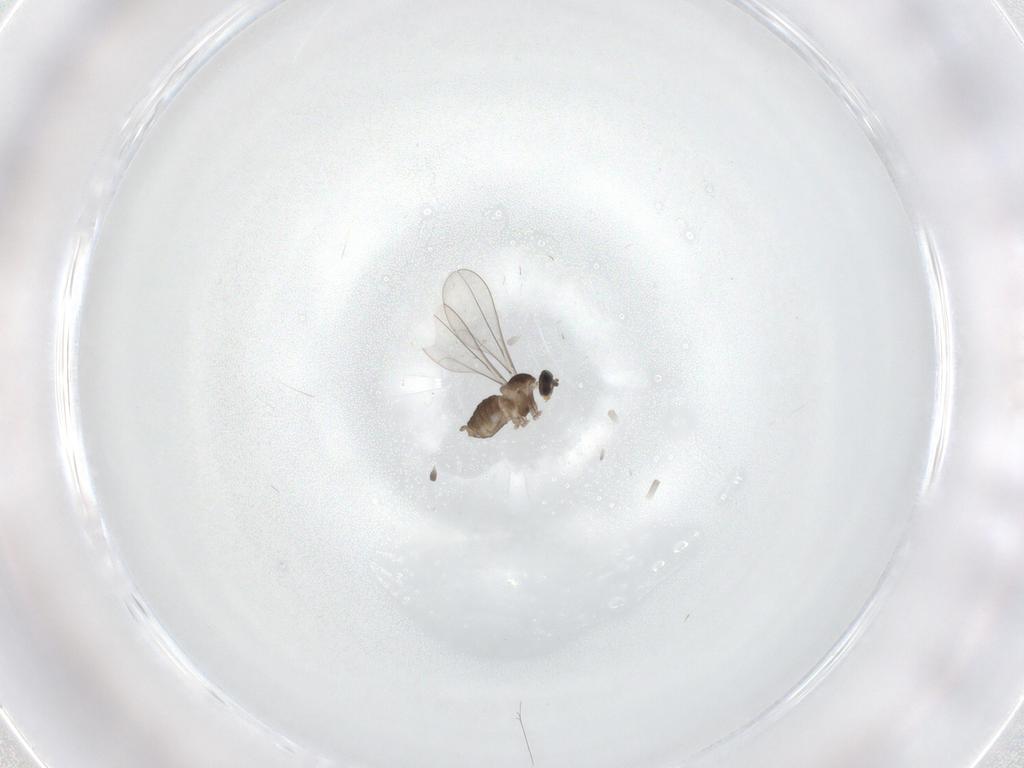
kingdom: Animalia
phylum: Arthropoda
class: Insecta
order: Diptera
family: Cecidomyiidae
